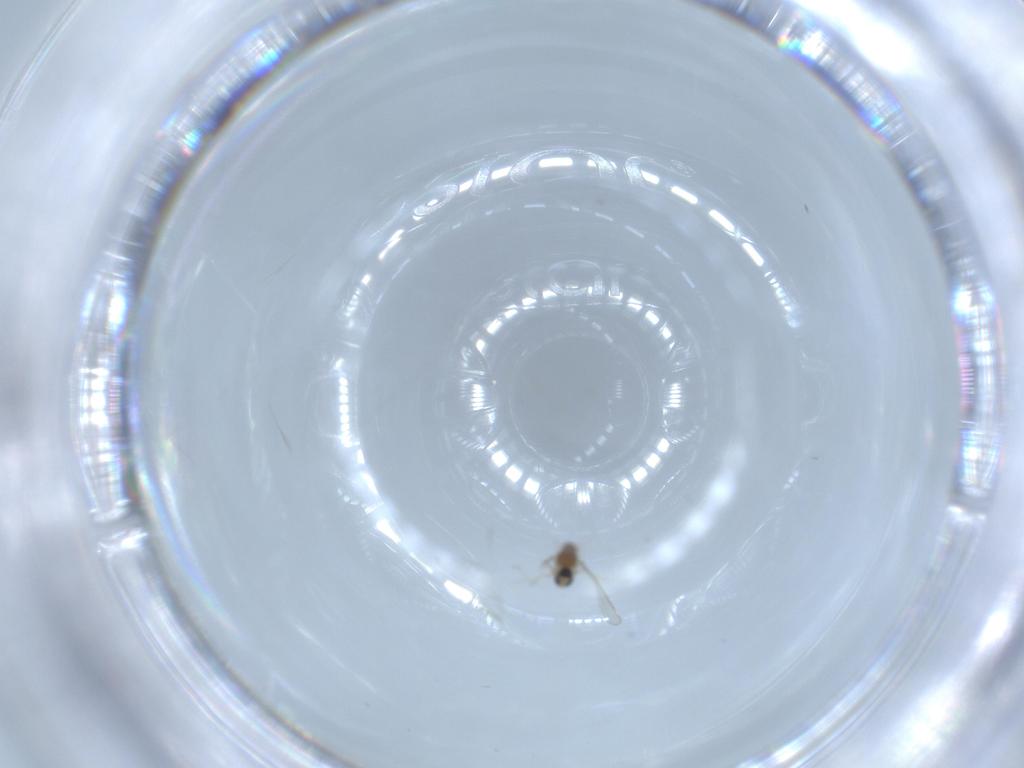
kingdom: Animalia
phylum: Arthropoda
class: Insecta
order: Diptera
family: Cecidomyiidae
